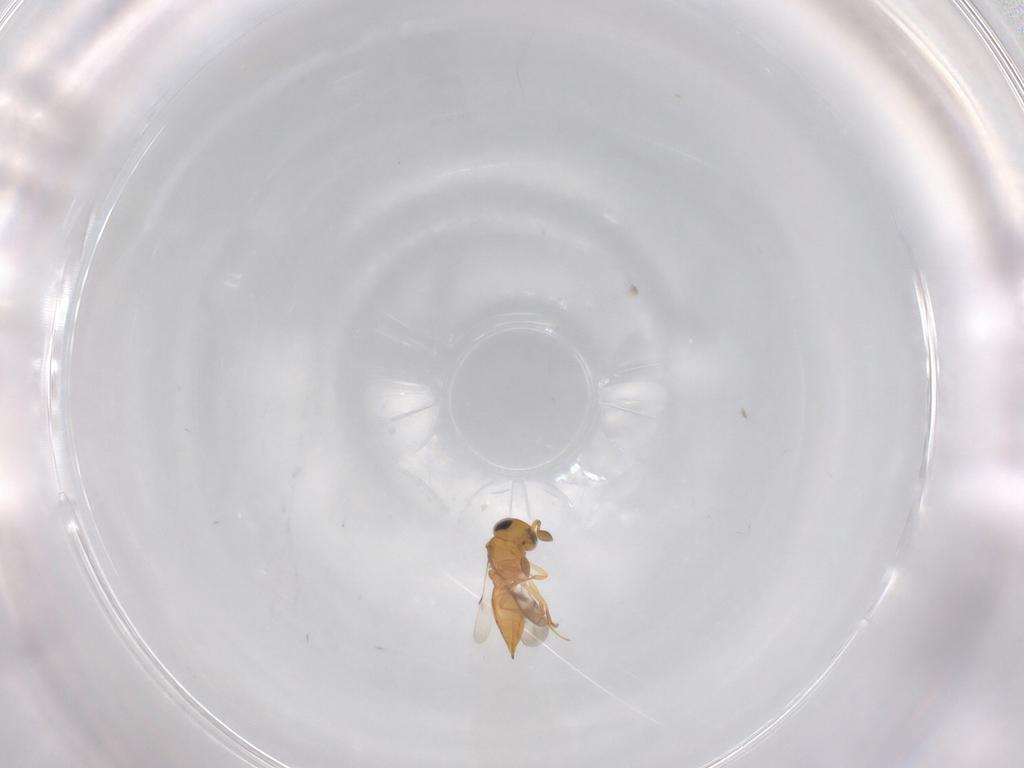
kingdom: Animalia
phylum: Arthropoda
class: Insecta
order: Hymenoptera
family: Scelionidae
